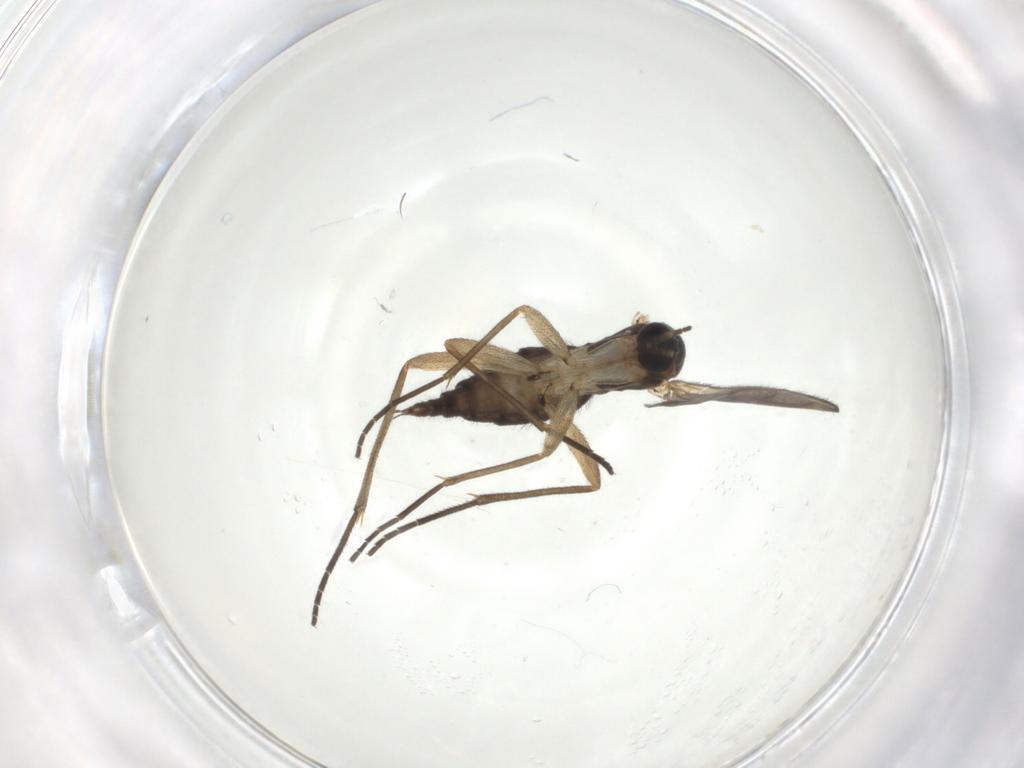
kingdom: Animalia
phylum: Arthropoda
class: Insecta
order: Diptera
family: Sciaridae
